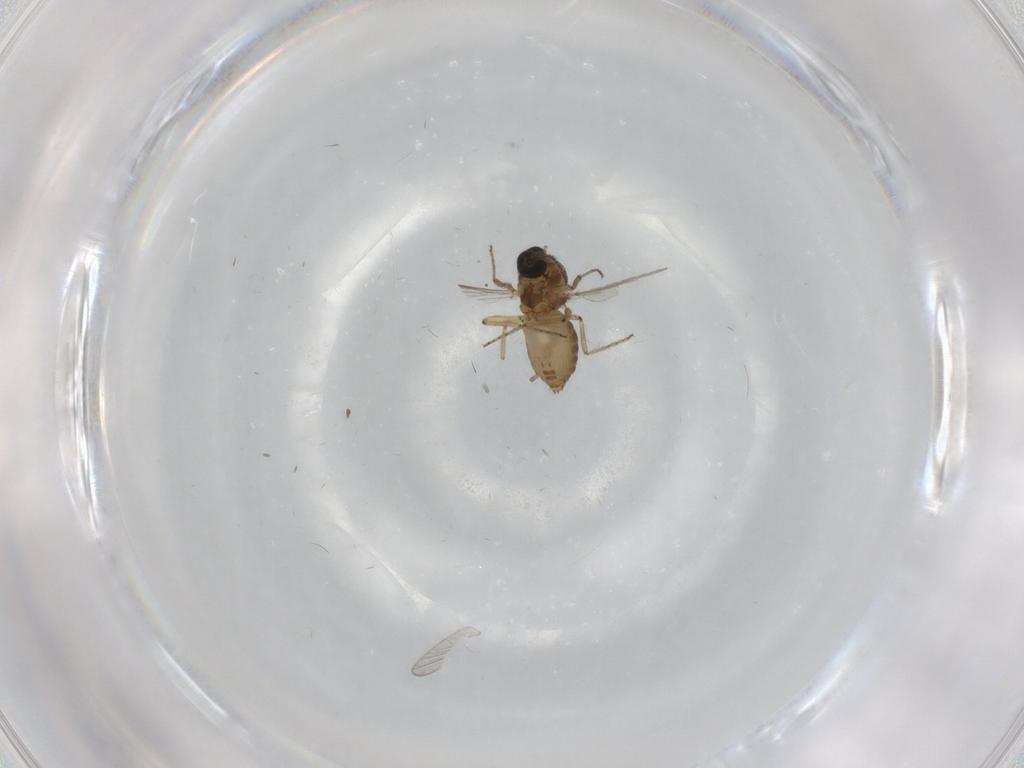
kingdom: Animalia
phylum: Arthropoda
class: Insecta
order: Diptera
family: Ceratopogonidae
